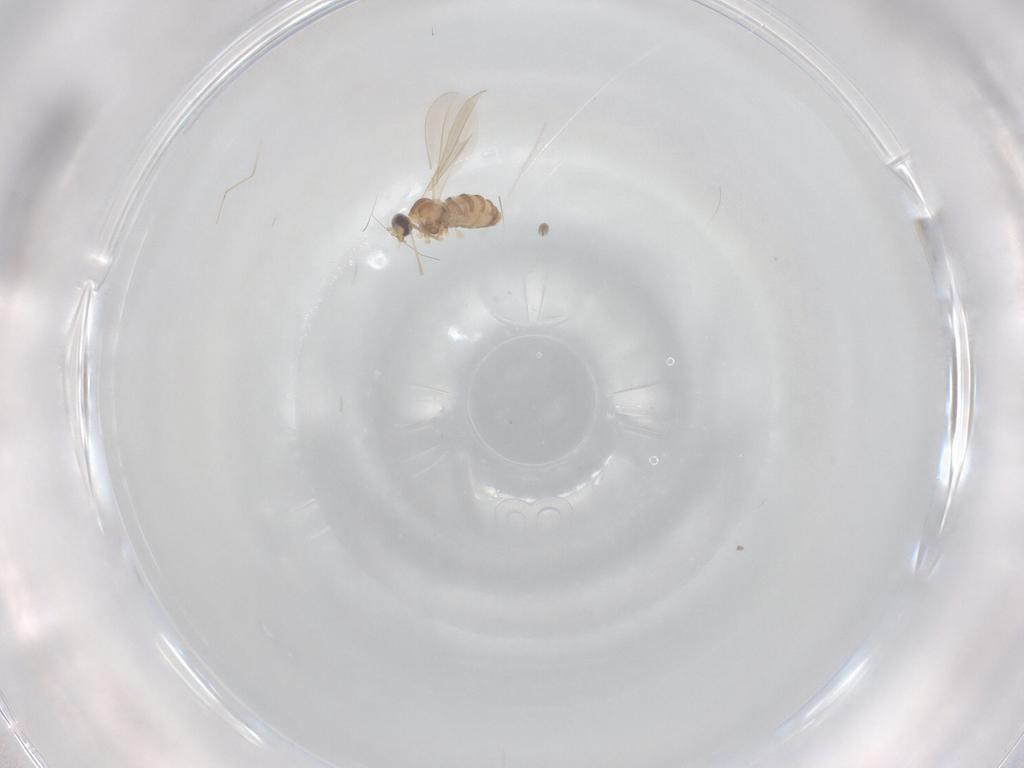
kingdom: Animalia
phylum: Arthropoda
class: Insecta
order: Diptera
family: Cecidomyiidae
